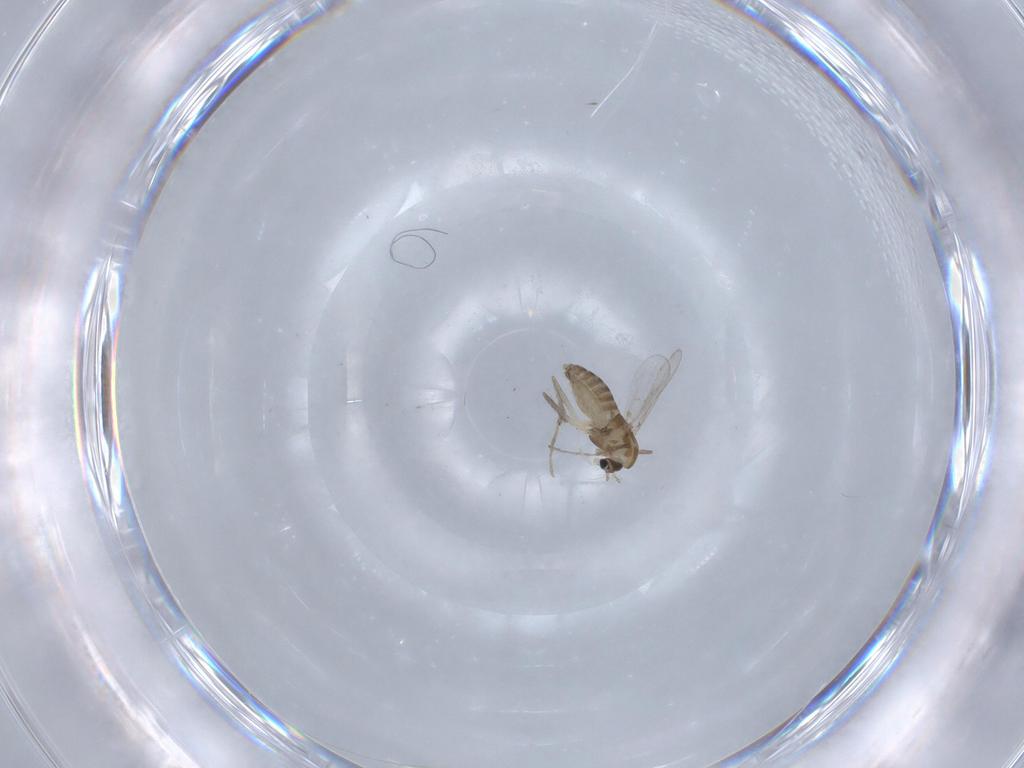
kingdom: Animalia
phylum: Arthropoda
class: Insecta
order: Diptera
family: Chironomidae
